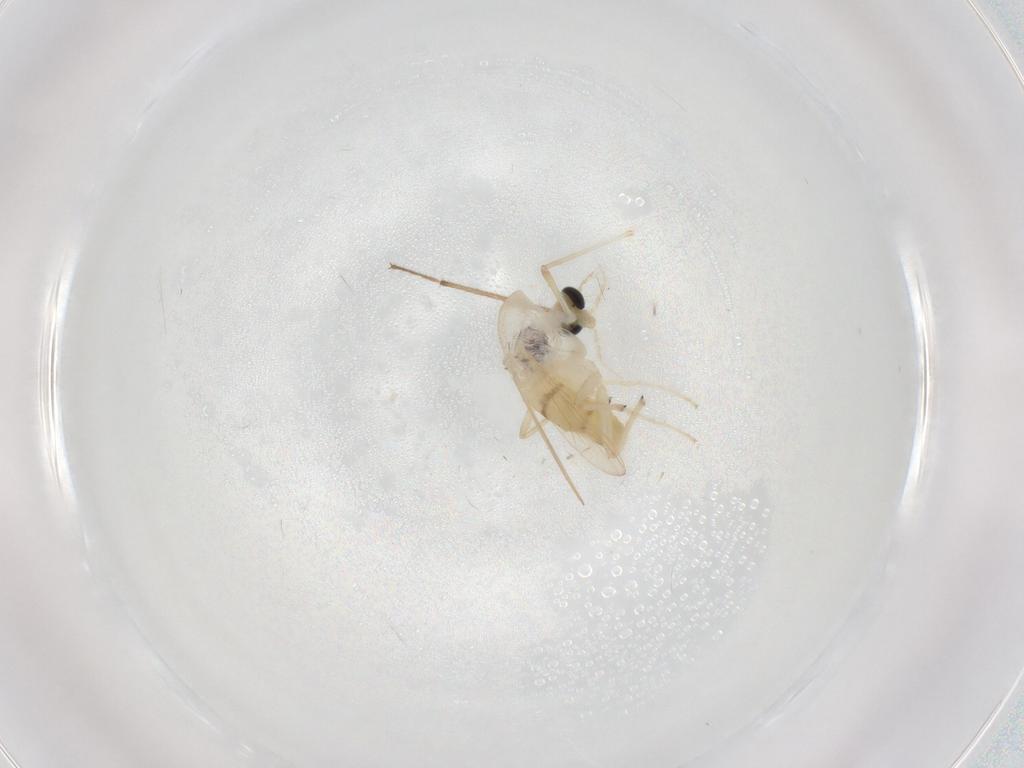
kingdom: Animalia
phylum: Arthropoda
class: Insecta
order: Diptera
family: Chironomidae
